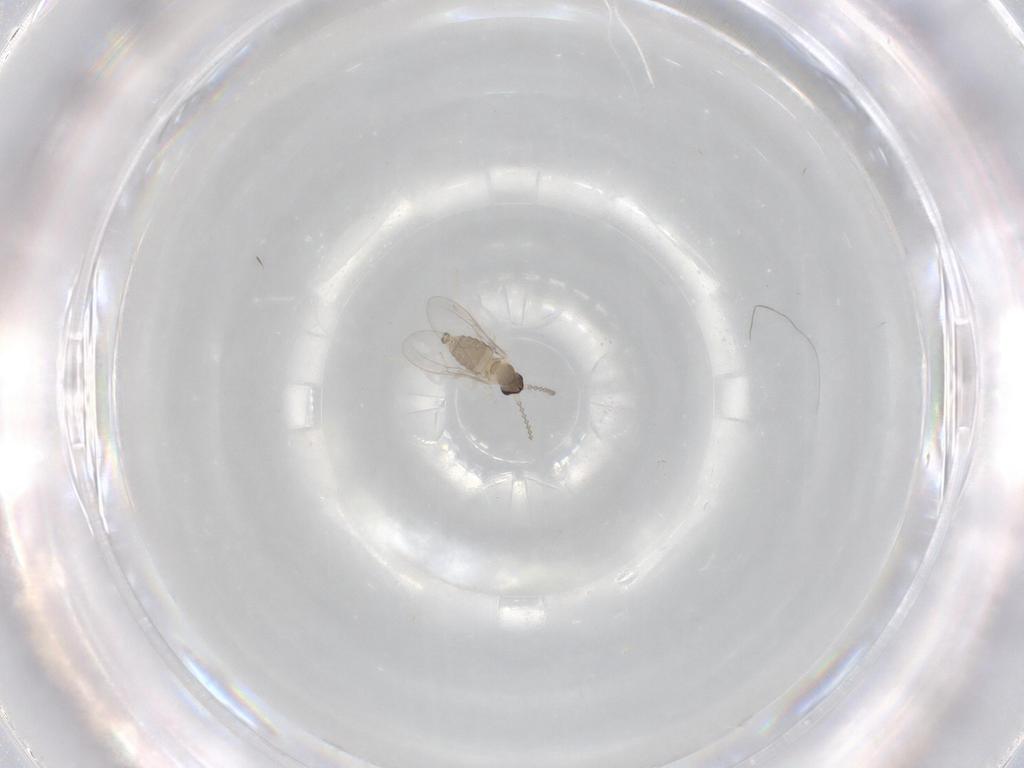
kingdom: Animalia
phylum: Arthropoda
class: Insecta
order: Diptera
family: Cecidomyiidae
